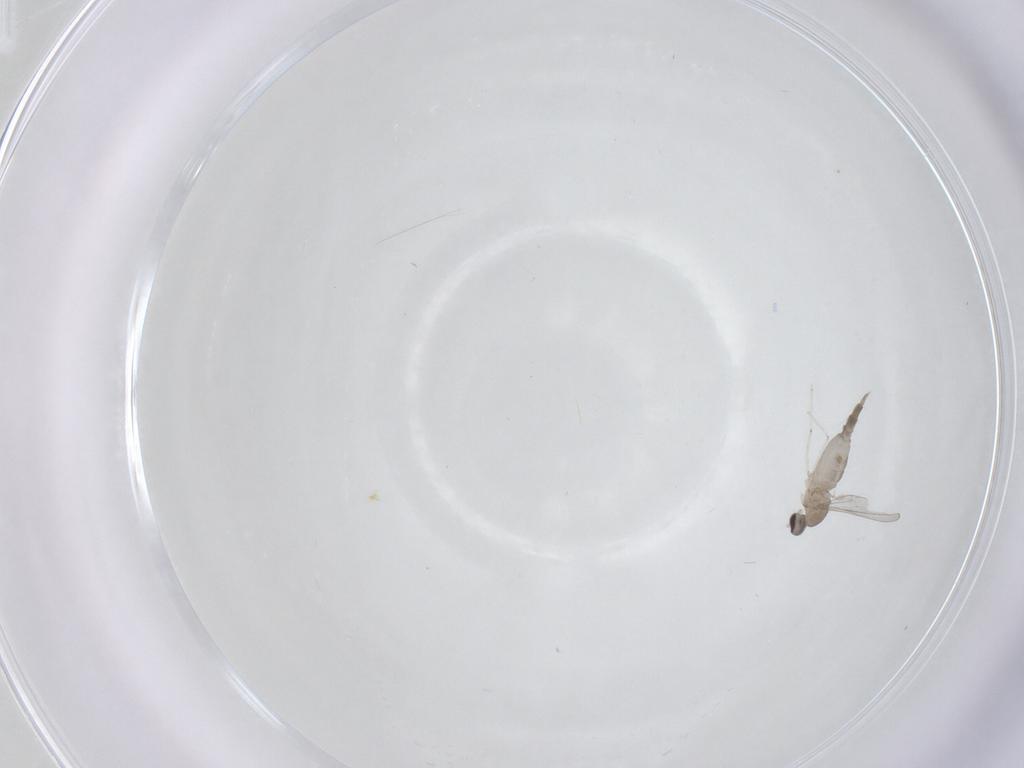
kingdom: Animalia
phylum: Arthropoda
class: Insecta
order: Diptera
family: Cecidomyiidae
